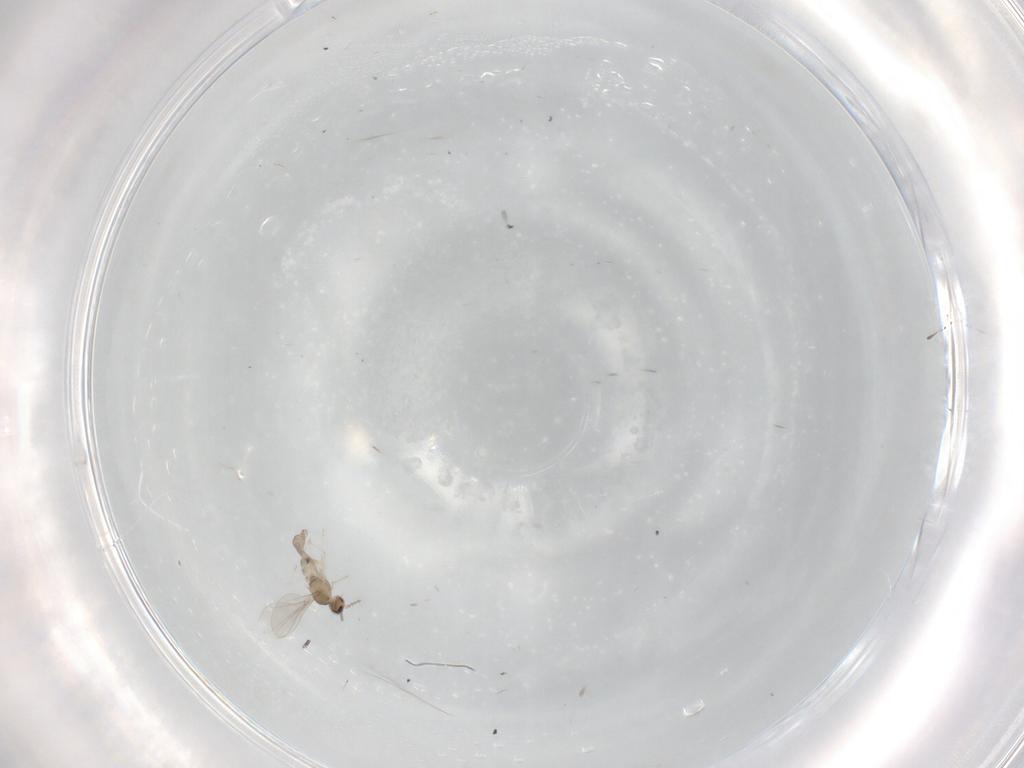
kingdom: Animalia
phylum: Arthropoda
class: Insecta
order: Diptera
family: Cecidomyiidae
